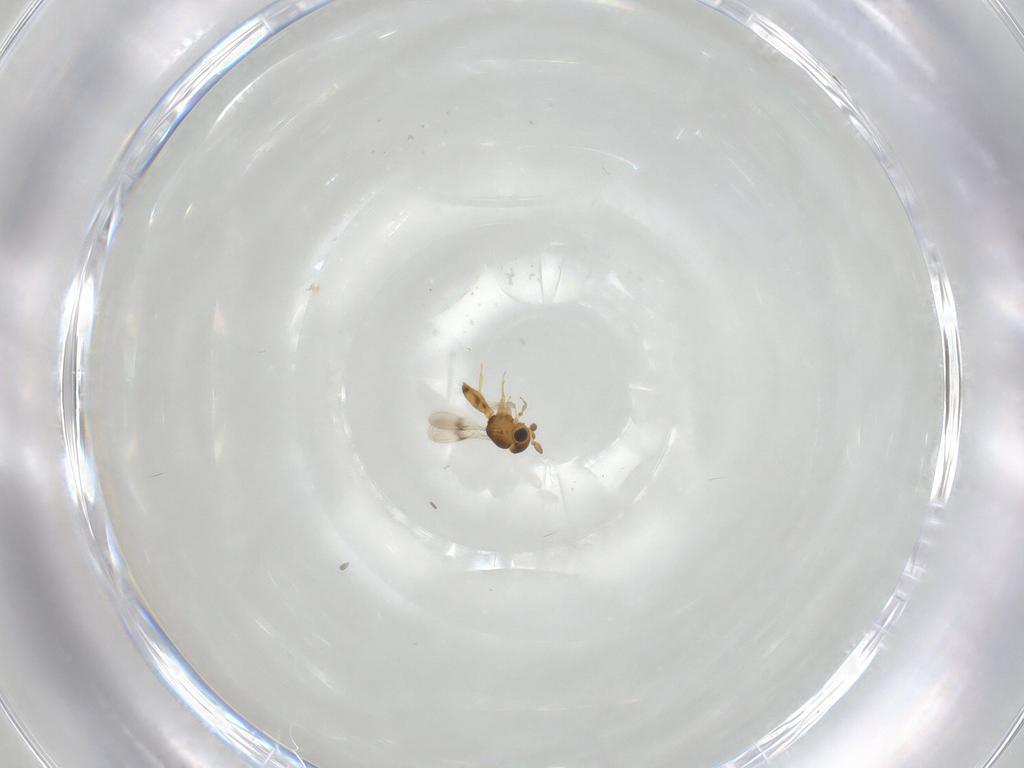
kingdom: Animalia
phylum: Arthropoda
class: Insecta
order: Hymenoptera
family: Scelionidae
